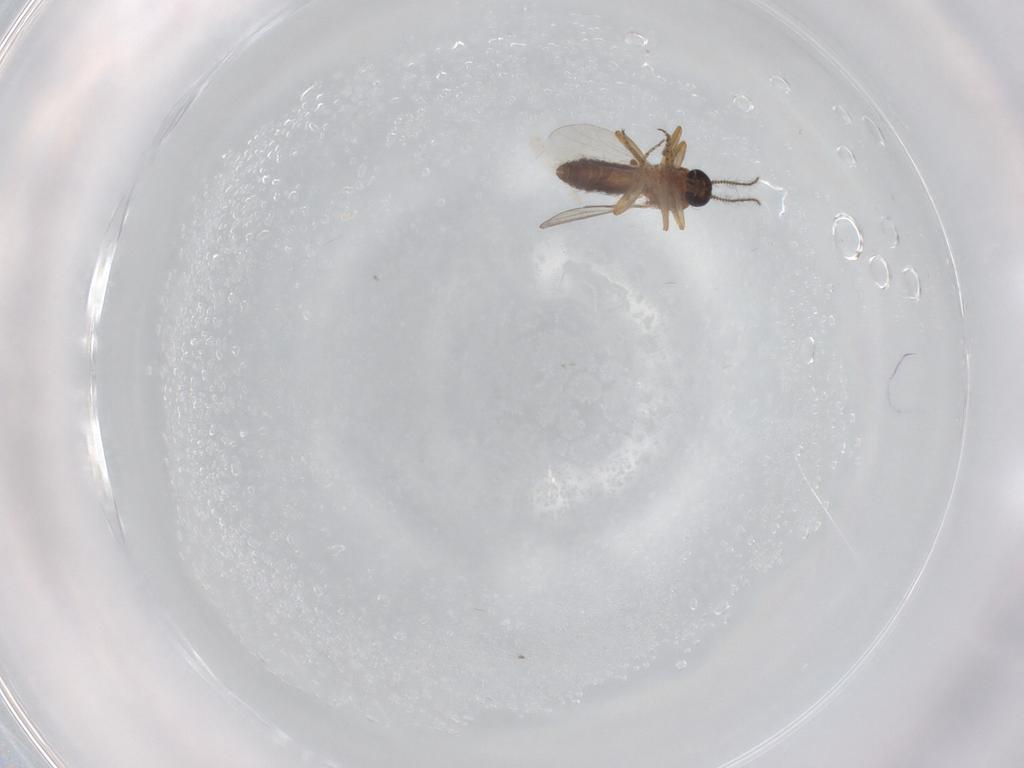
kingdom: Animalia
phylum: Arthropoda
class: Insecta
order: Diptera
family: Ceratopogonidae
